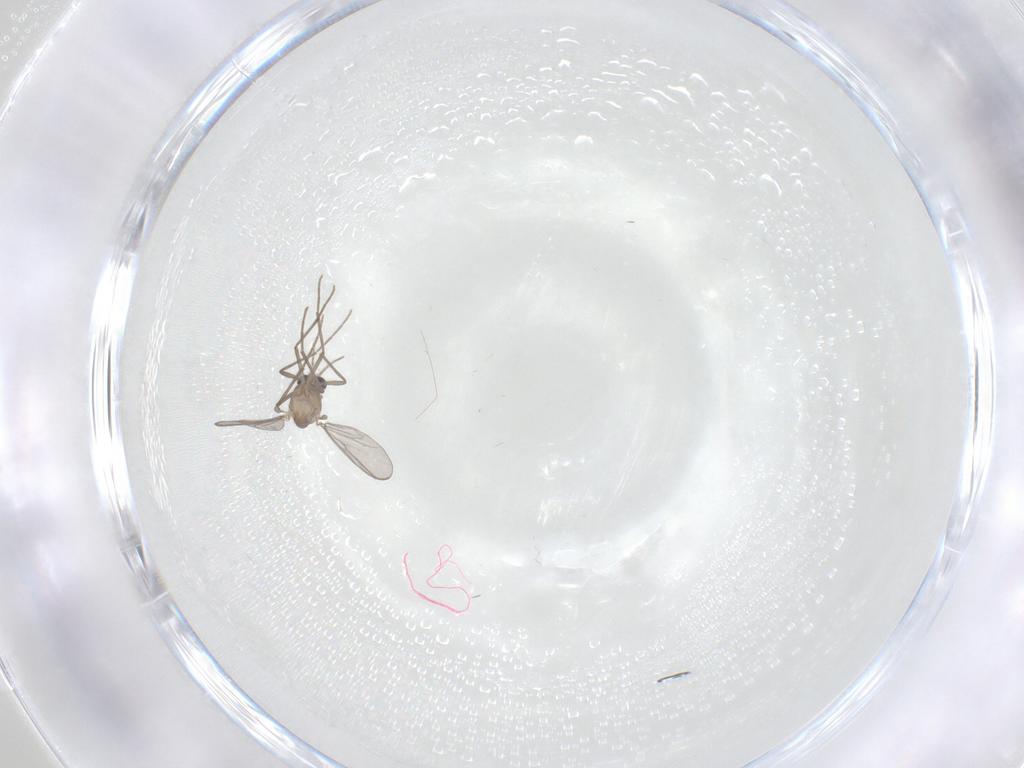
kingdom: Animalia
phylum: Arthropoda
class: Insecta
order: Diptera
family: Chironomidae
